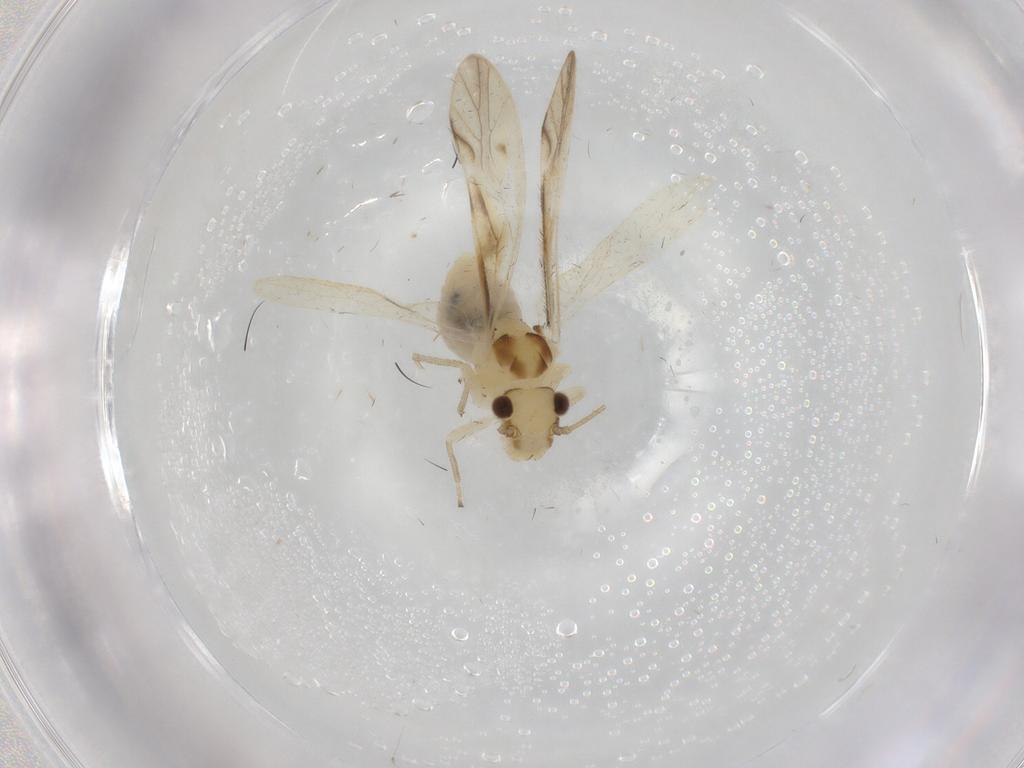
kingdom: Animalia
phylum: Arthropoda
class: Insecta
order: Psocodea
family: Caeciliusidae
